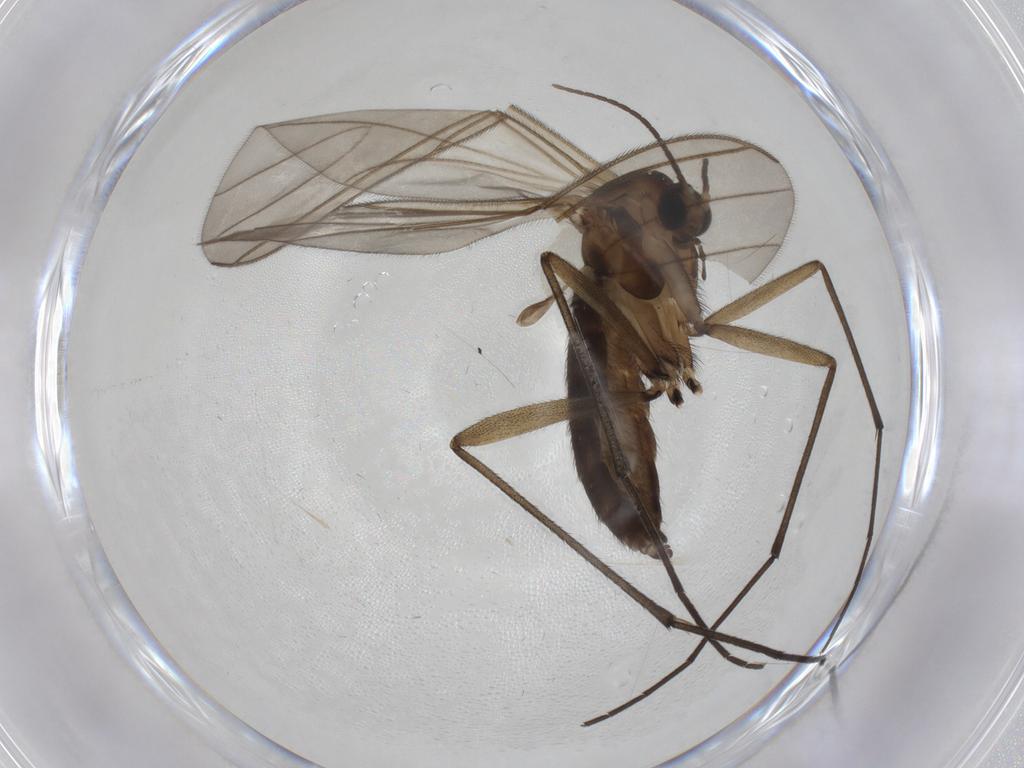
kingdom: Animalia
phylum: Arthropoda
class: Insecta
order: Diptera
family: Sciaridae
